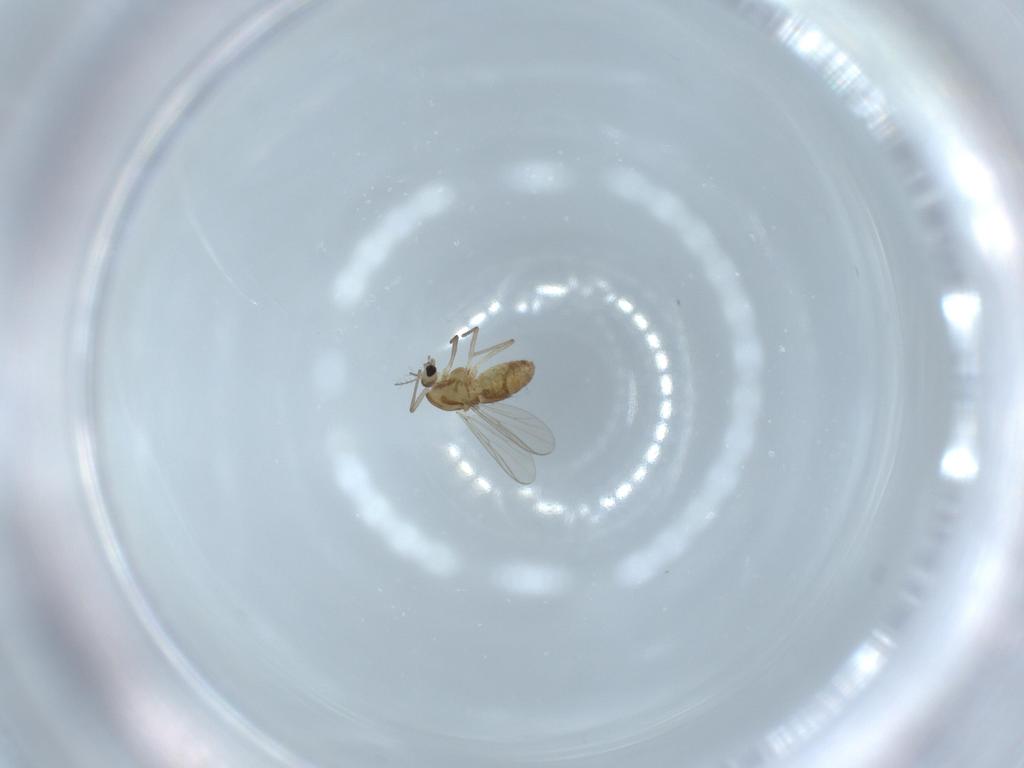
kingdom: Animalia
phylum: Arthropoda
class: Insecta
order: Diptera
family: Chironomidae
